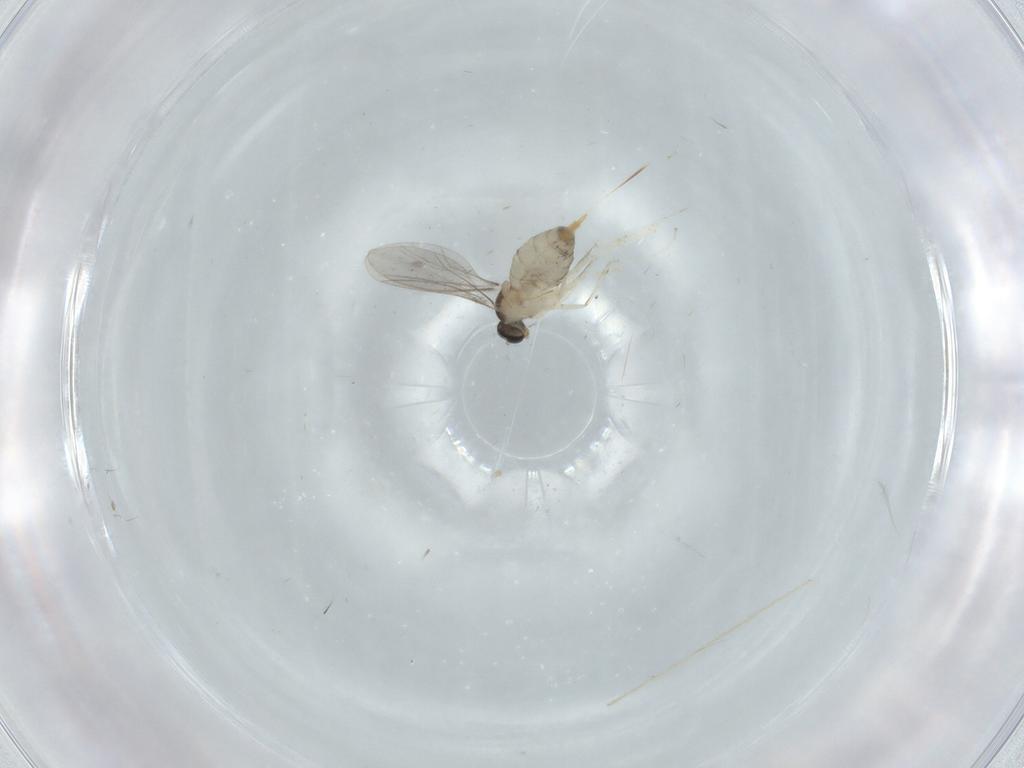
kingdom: Animalia
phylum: Arthropoda
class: Insecta
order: Diptera
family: Cecidomyiidae
